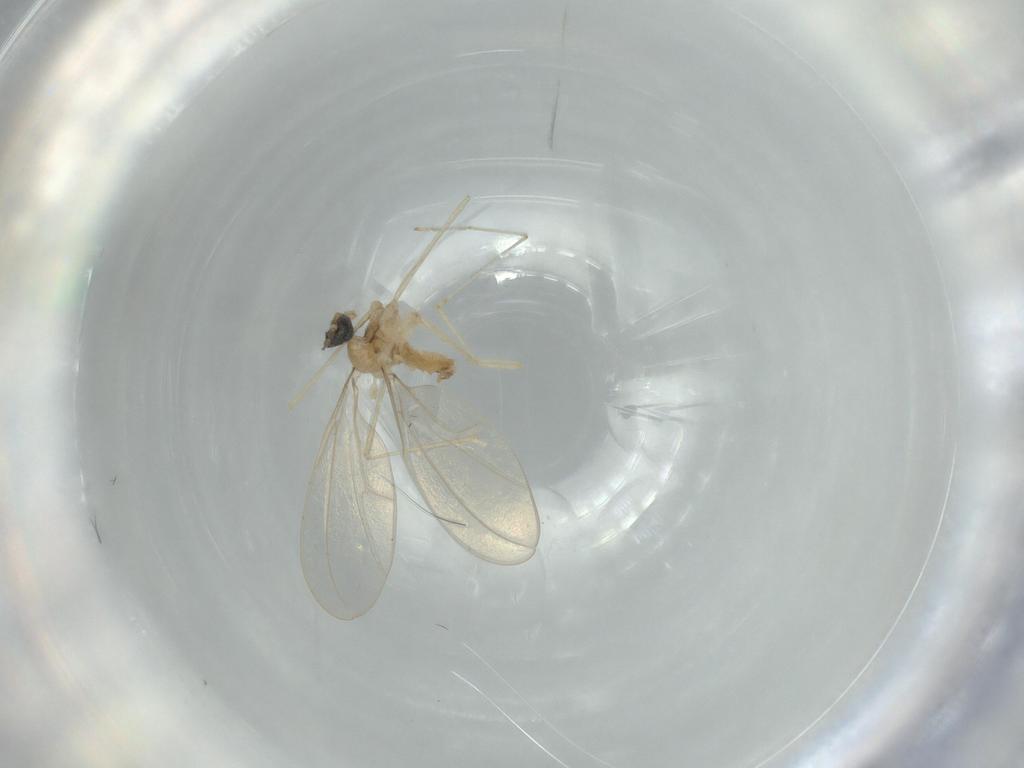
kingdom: Animalia
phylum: Arthropoda
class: Insecta
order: Diptera
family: Cecidomyiidae
